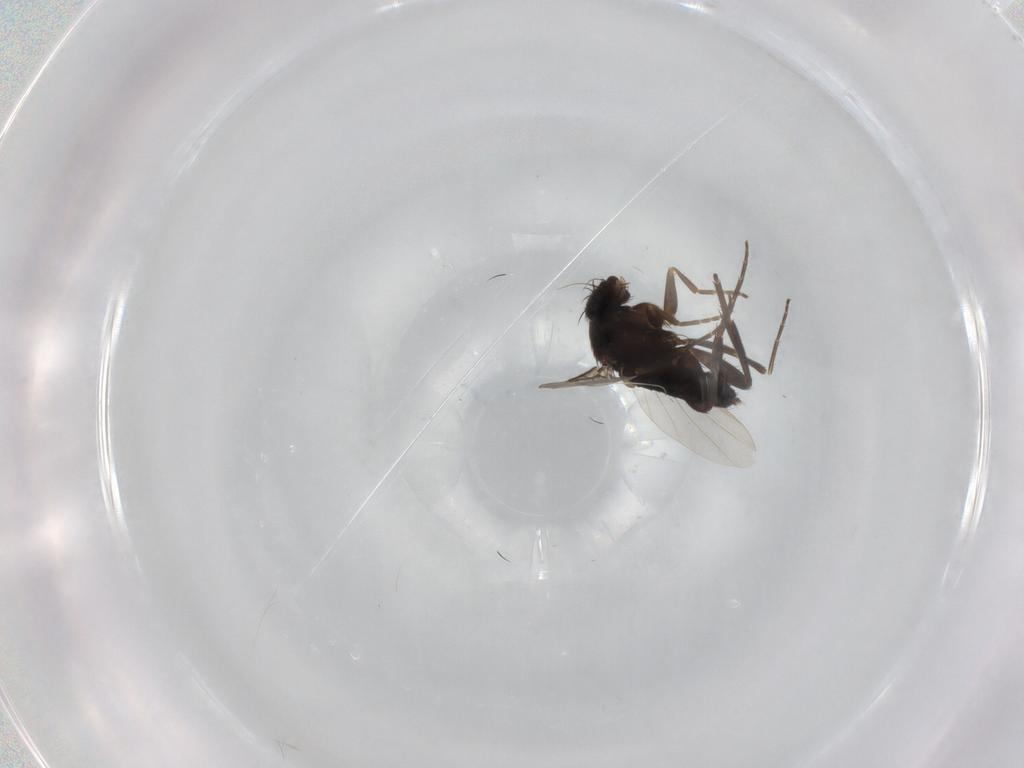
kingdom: Animalia
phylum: Arthropoda
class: Insecta
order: Diptera
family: Phoridae
